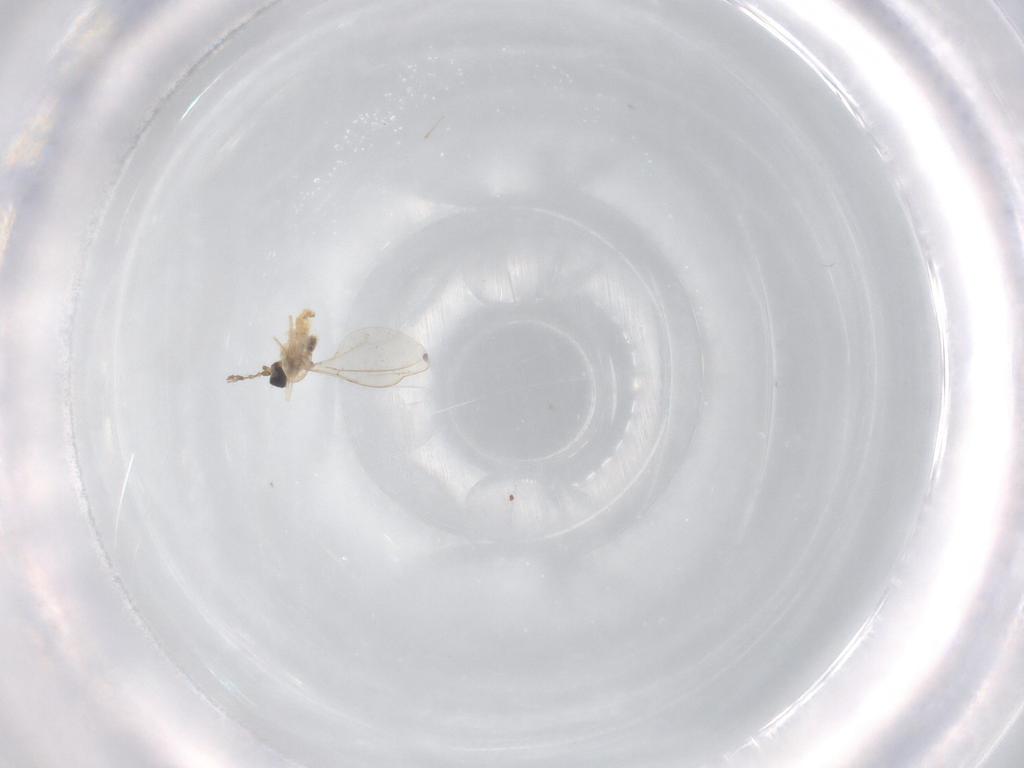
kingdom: Animalia
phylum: Arthropoda
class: Insecta
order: Diptera
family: Cecidomyiidae
